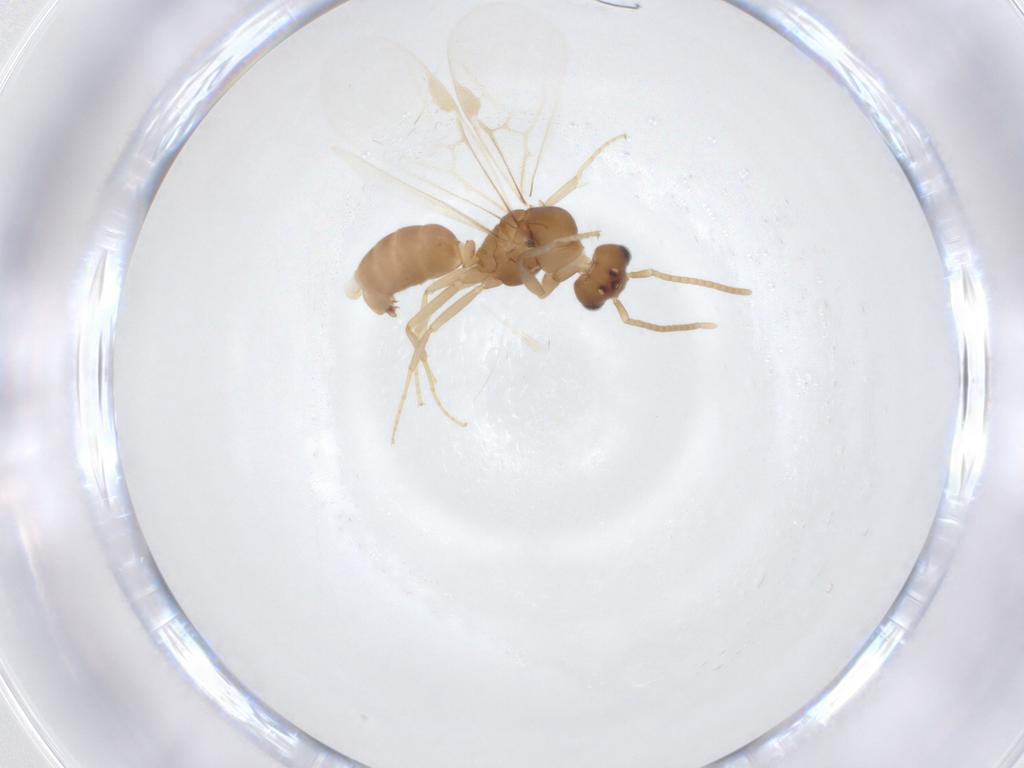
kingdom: Animalia
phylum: Arthropoda
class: Insecta
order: Hymenoptera
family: Formicidae
